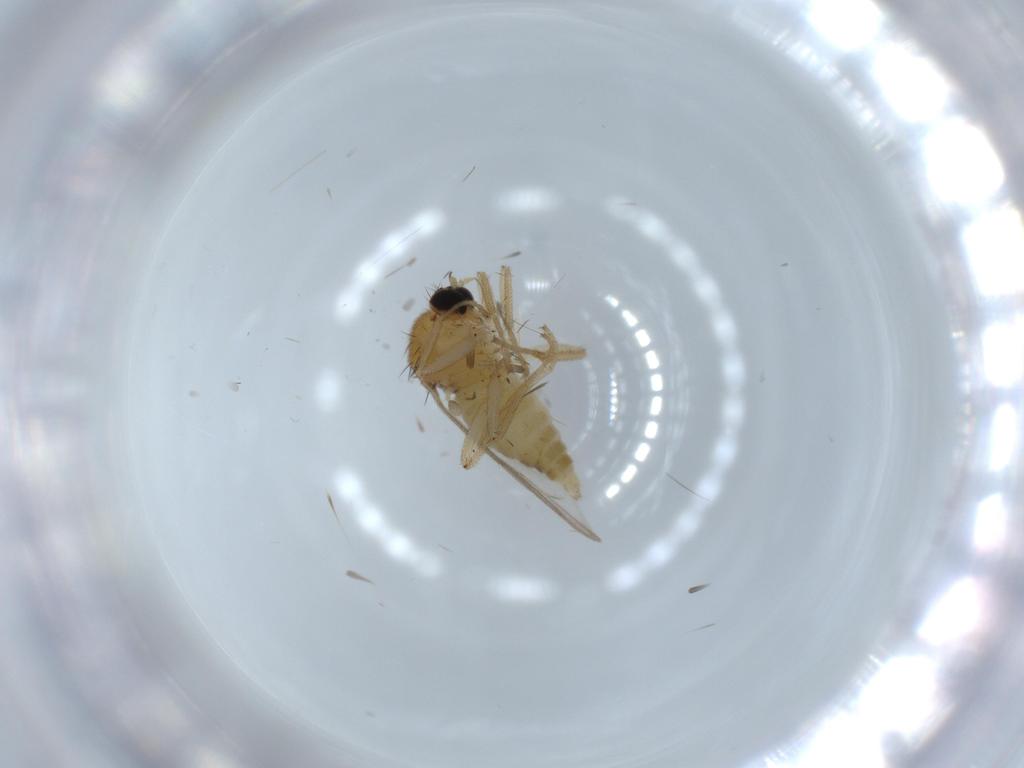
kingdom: Animalia
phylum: Arthropoda
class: Insecta
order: Diptera
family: Hybotidae
